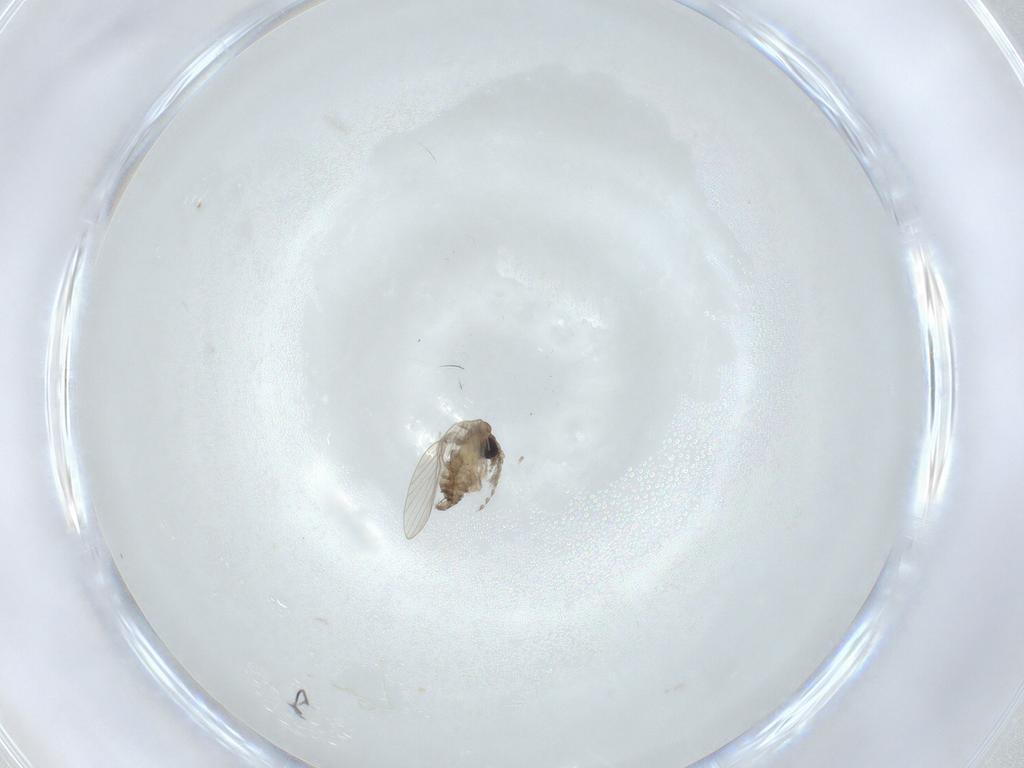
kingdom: Animalia
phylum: Arthropoda
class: Insecta
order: Diptera
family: Psychodidae
